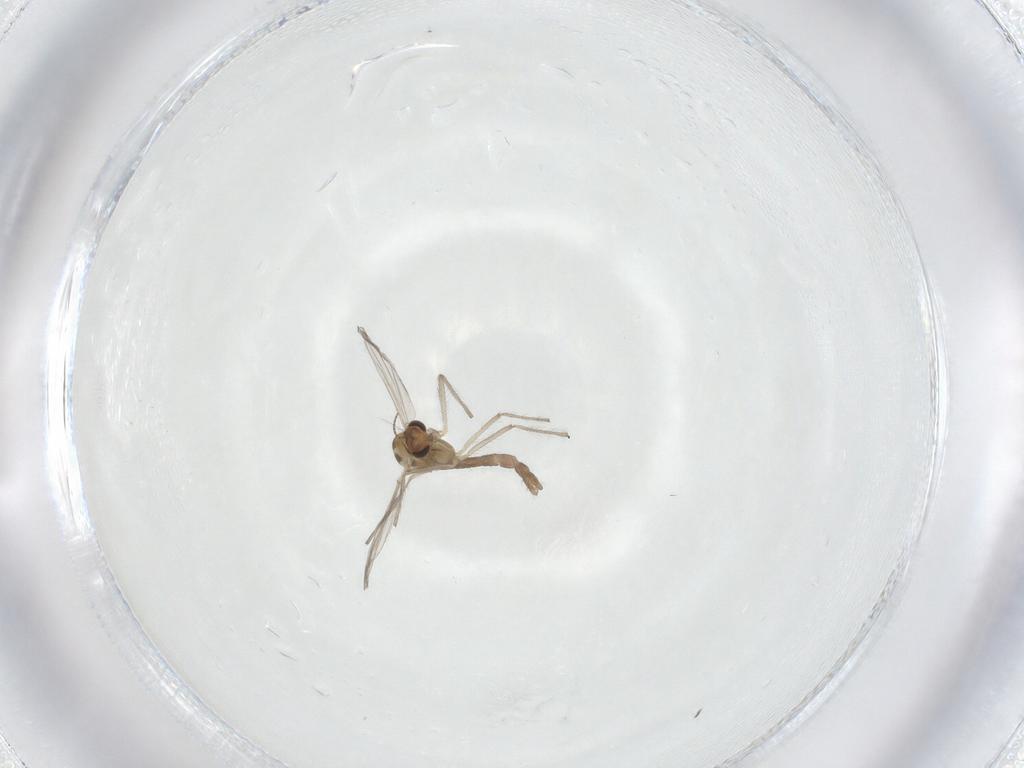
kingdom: Animalia
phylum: Arthropoda
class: Insecta
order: Diptera
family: Chironomidae
